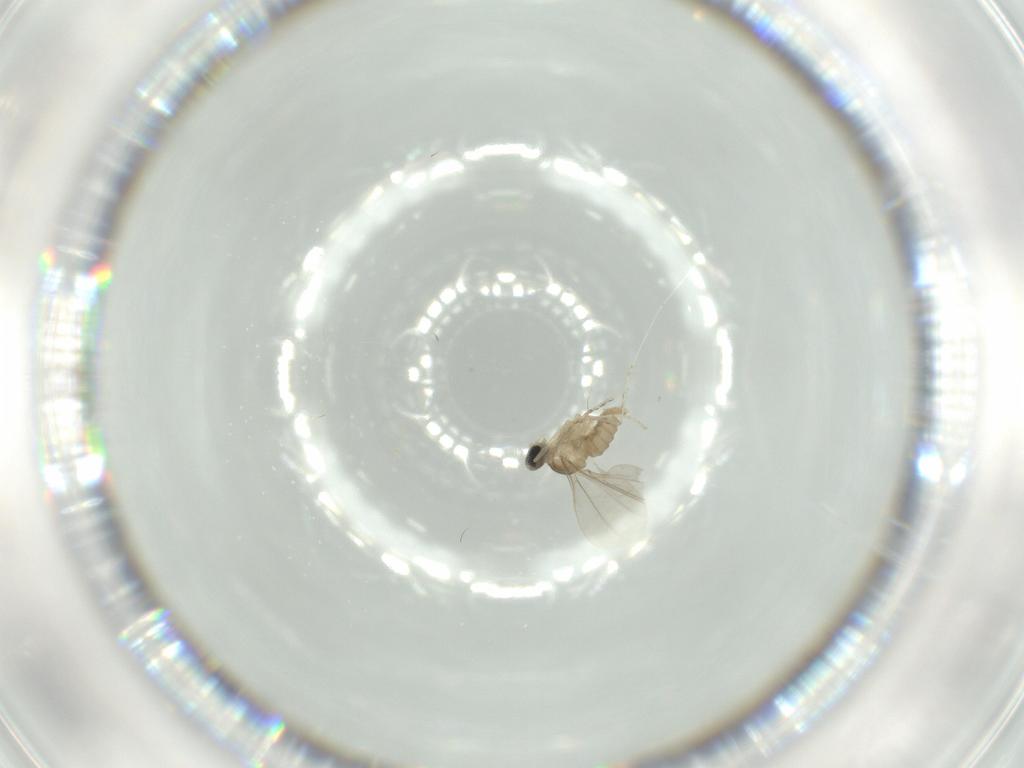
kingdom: Animalia
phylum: Arthropoda
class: Insecta
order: Diptera
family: Cecidomyiidae
